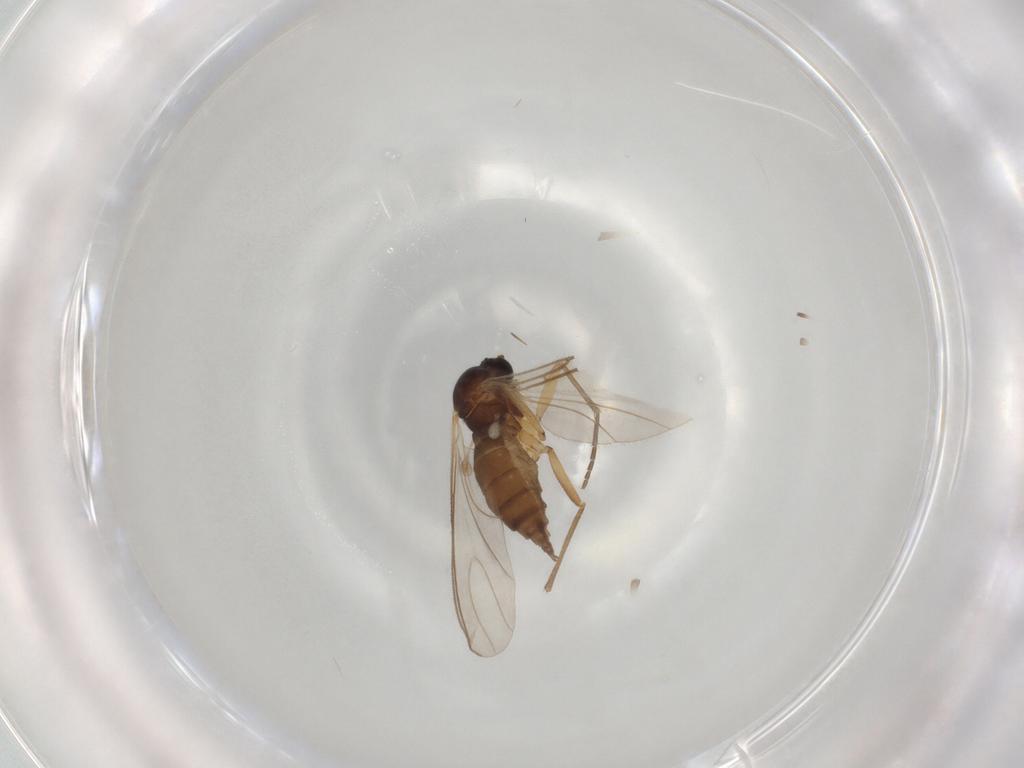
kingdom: Animalia
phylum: Arthropoda
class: Insecta
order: Diptera
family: Sciaridae
